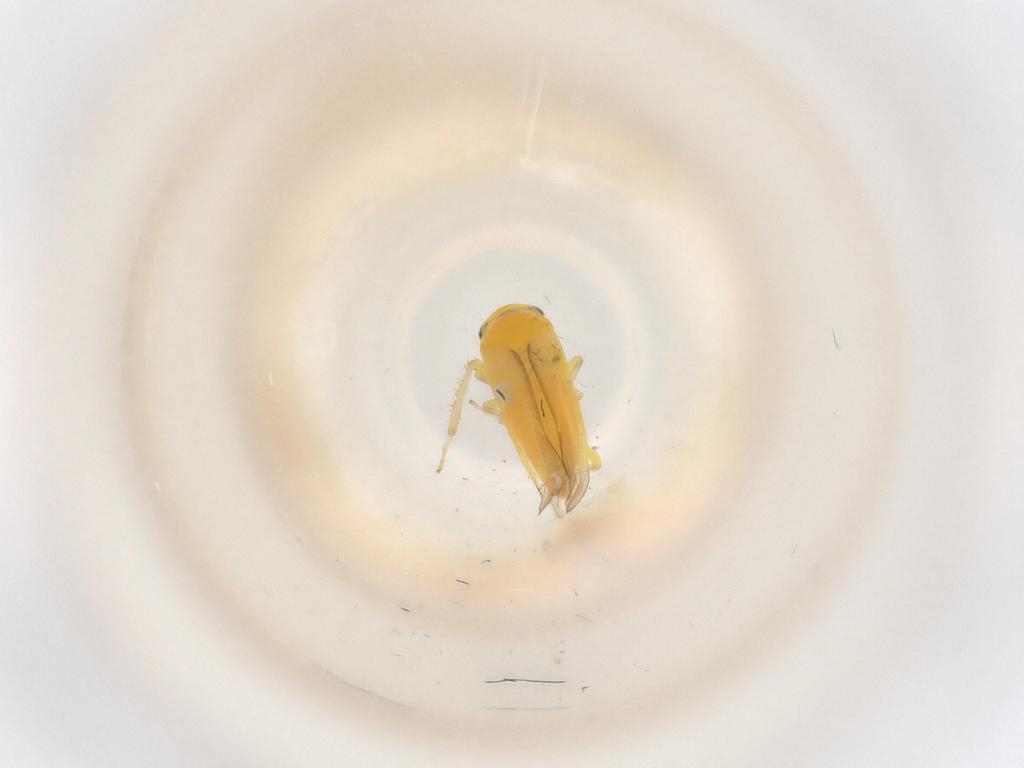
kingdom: Animalia
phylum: Arthropoda
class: Insecta
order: Hemiptera
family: Cicadellidae
